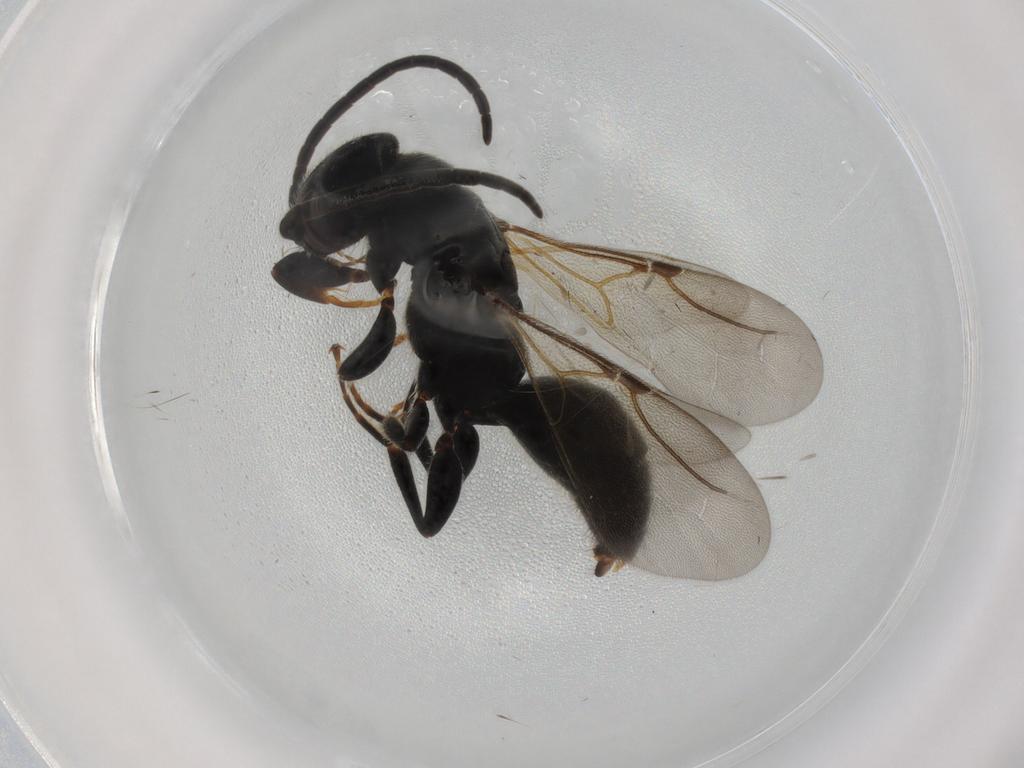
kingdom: Animalia
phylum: Arthropoda
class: Insecta
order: Hymenoptera
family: Bethylidae
